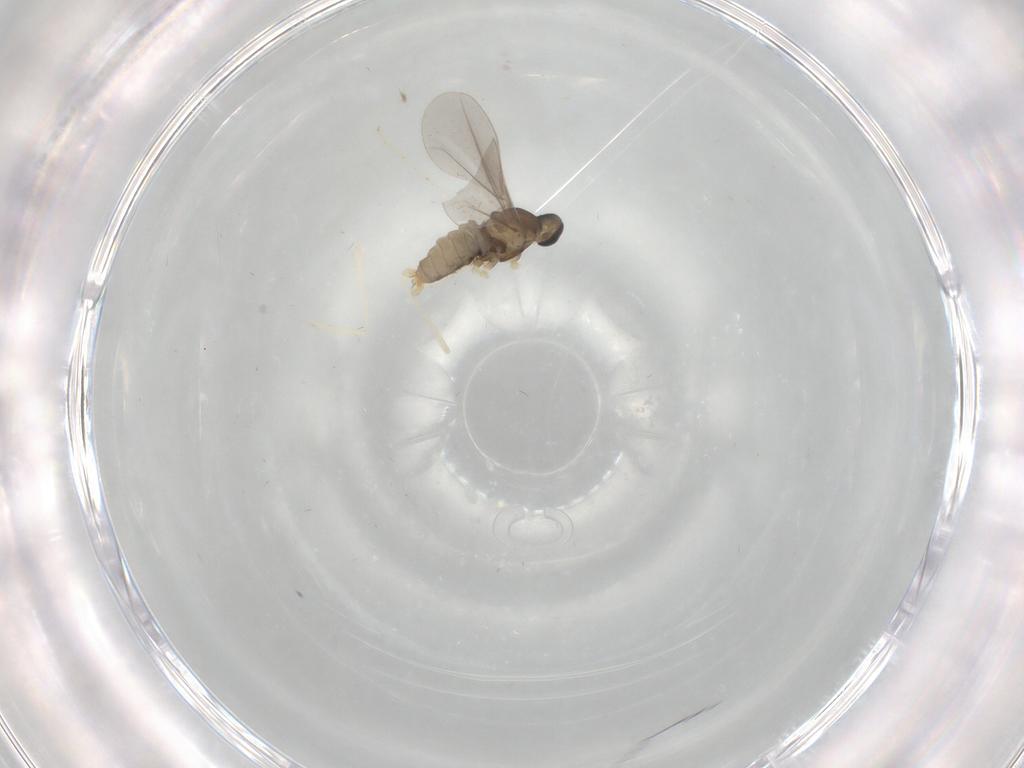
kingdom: Animalia
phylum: Arthropoda
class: Insecta
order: Diptera
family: Cecidomyiidae
